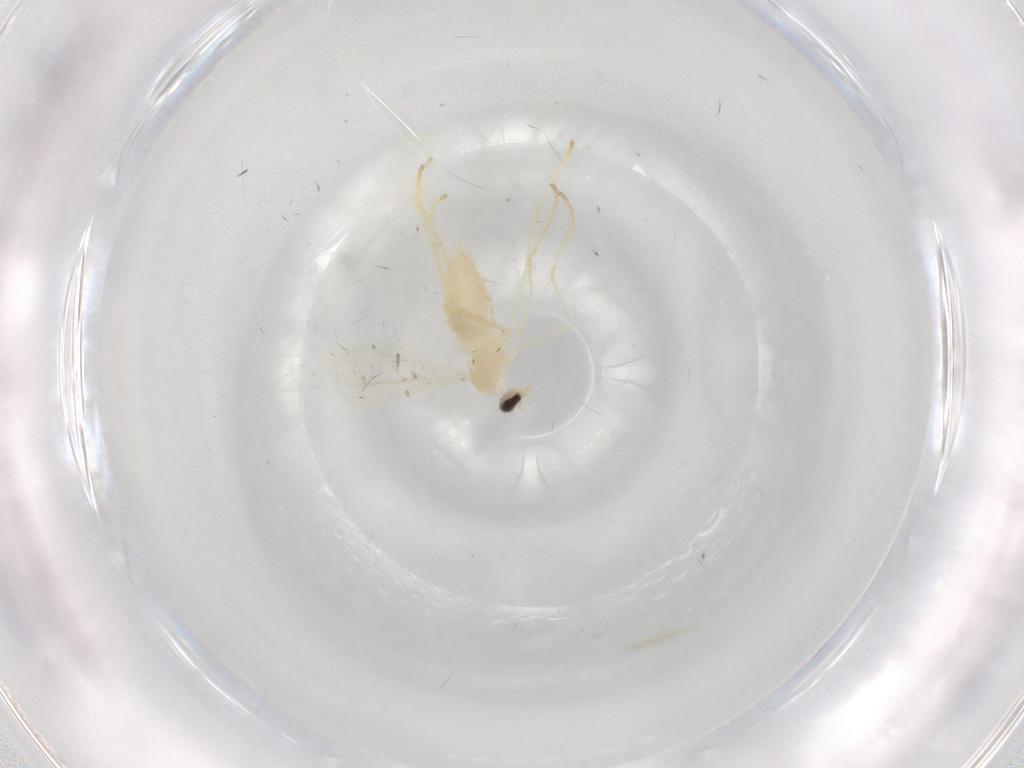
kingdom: Animalia
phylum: Arthropoda
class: Insecta
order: Diptera
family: Cecidomyiidae
